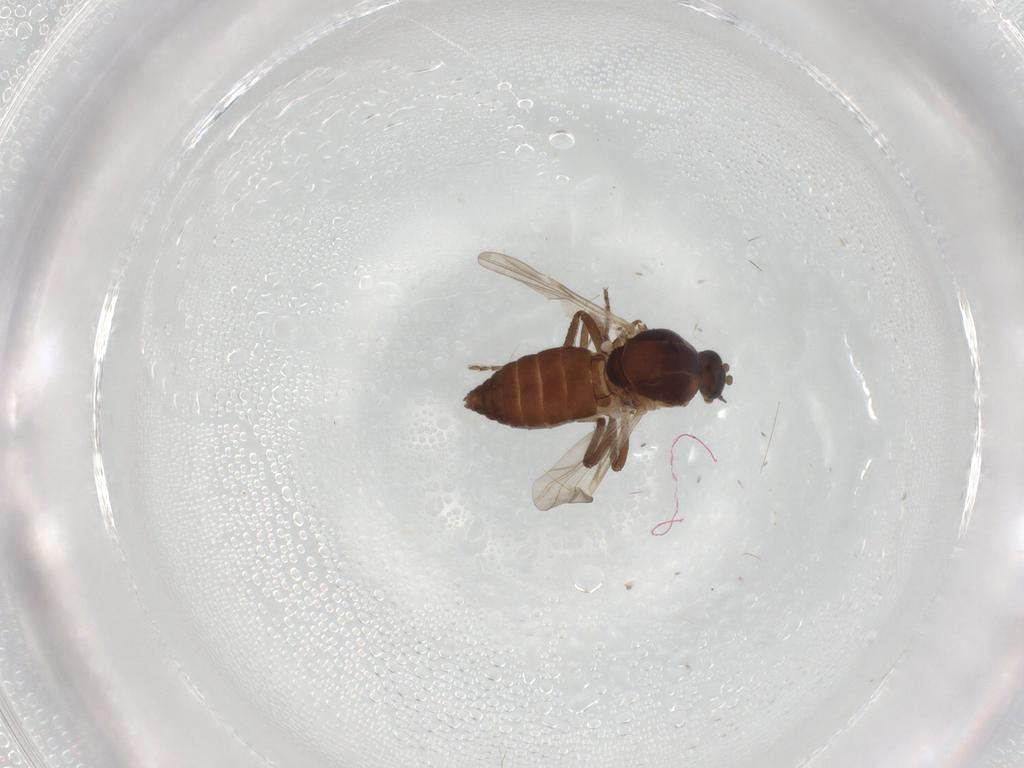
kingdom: Animalia
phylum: Arthropoda
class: Insecta
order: Diptera
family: Ceratopogonidae
